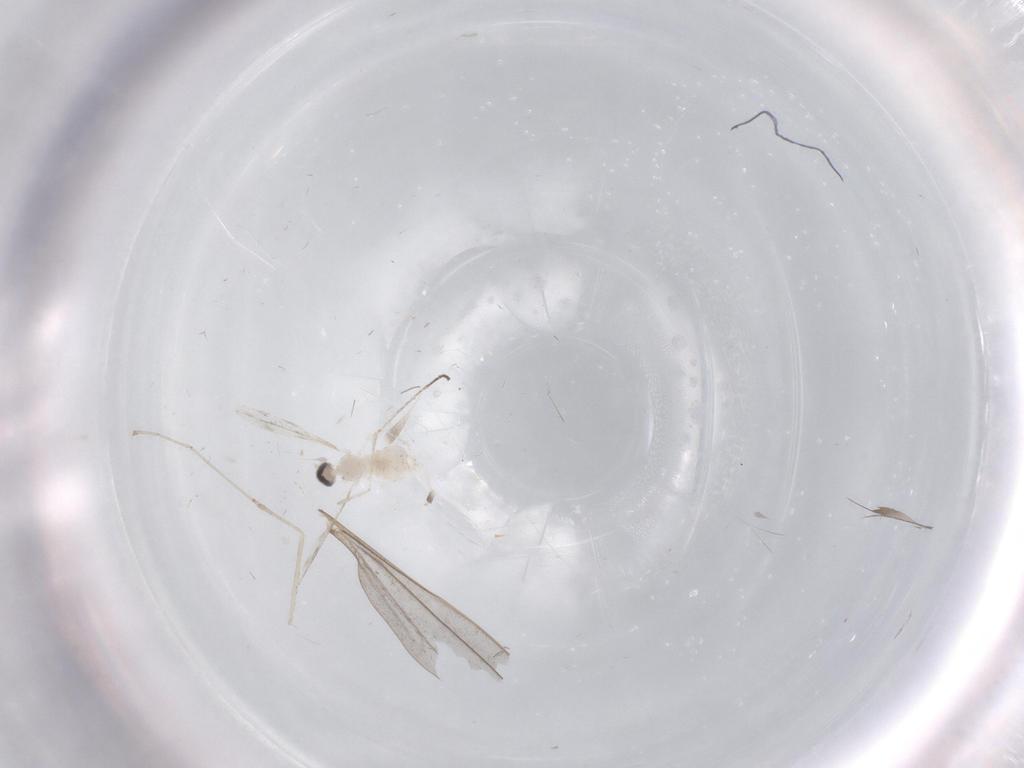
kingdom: Animalia
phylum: Arthropoda
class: Insecta
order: Diptera
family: Cecidomyiidae
